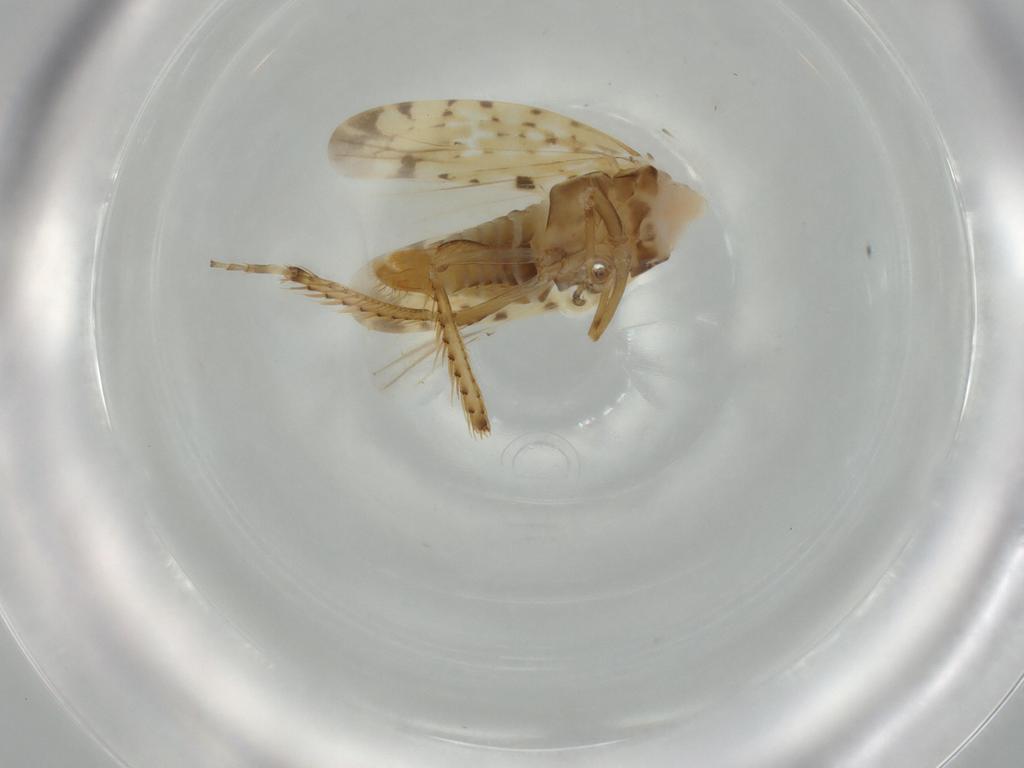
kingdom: Animalia
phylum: Arthropoda
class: Insecta
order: Hemiptera
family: Cicadellidae
